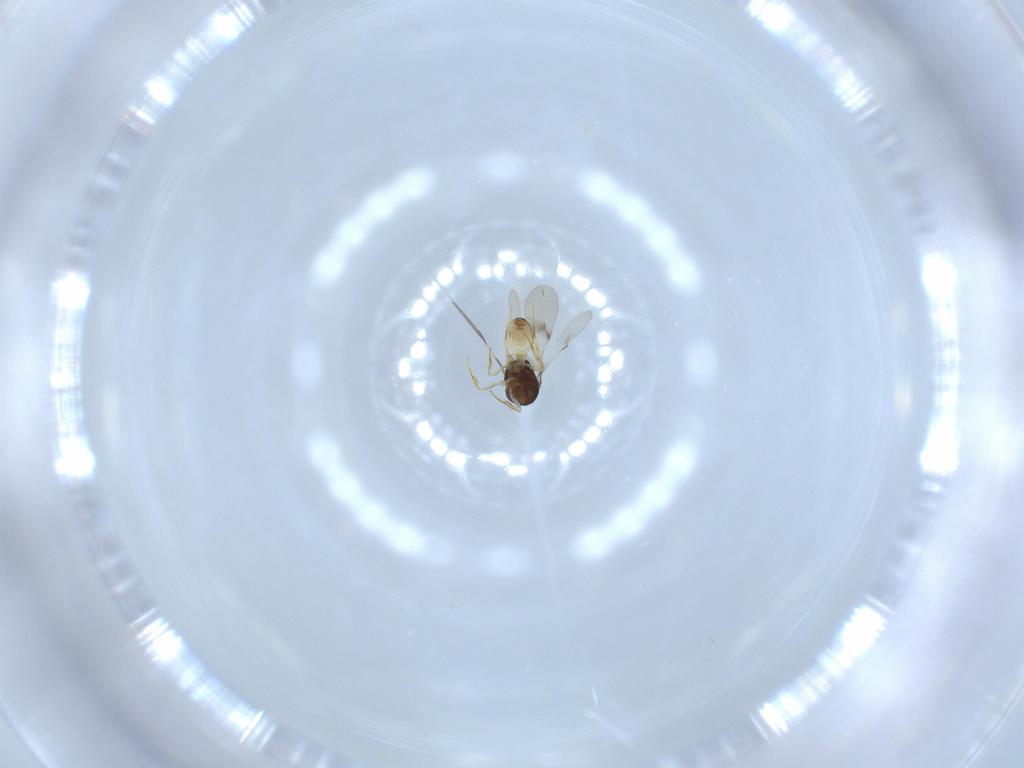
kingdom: Animalia
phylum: Arthropoda
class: Insecta
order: Hymenoptera
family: Scelionidae
